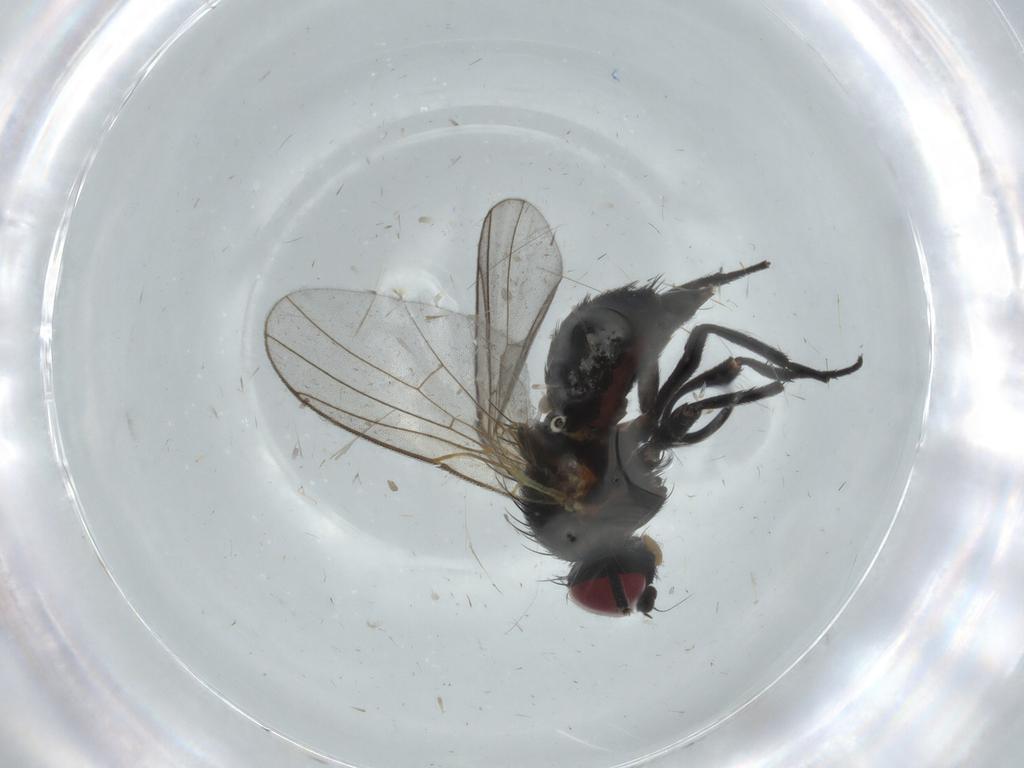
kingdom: Animalia
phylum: Arthropoda
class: Insecta
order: Diptera
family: Agromyzidae
